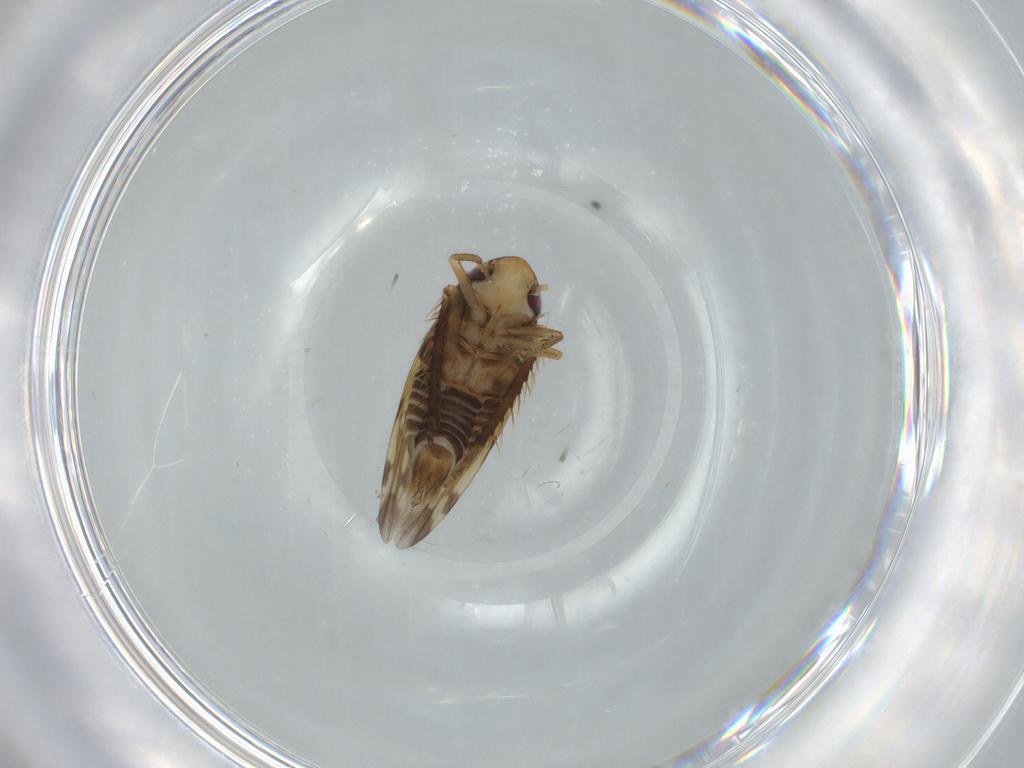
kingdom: Animalia
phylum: Arthropoda
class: Insecta
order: Hemiptera
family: Cicadellidae
